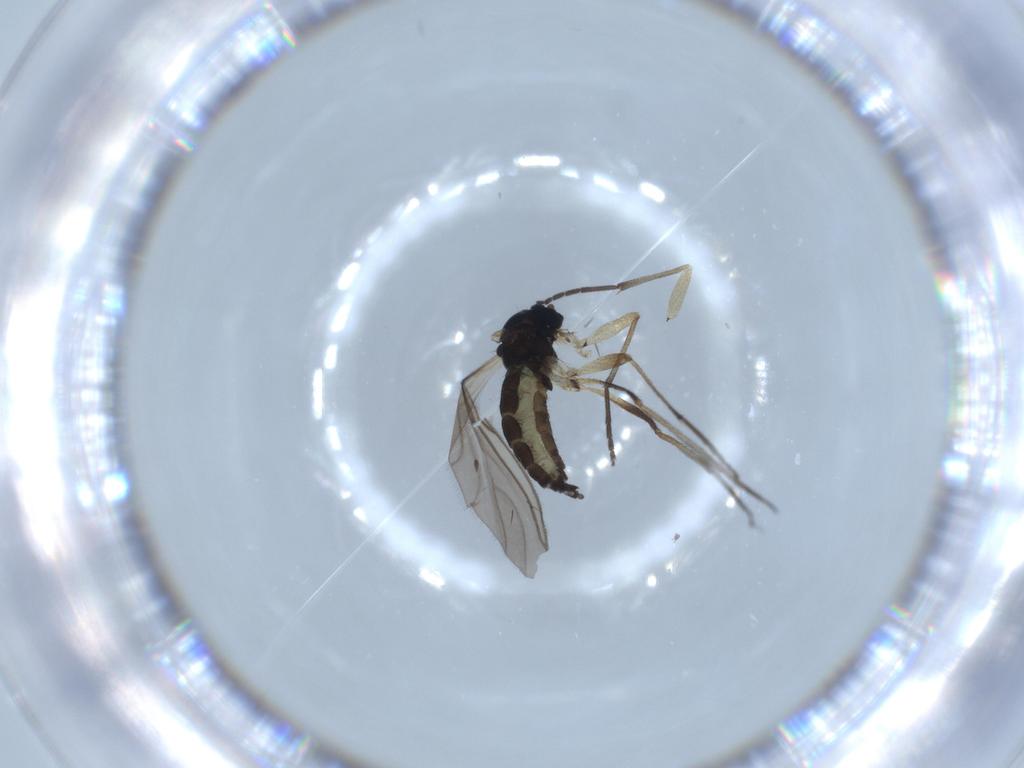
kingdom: Animalia
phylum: Arthropoda
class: Insecta
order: Diptera
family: Sciaridae
